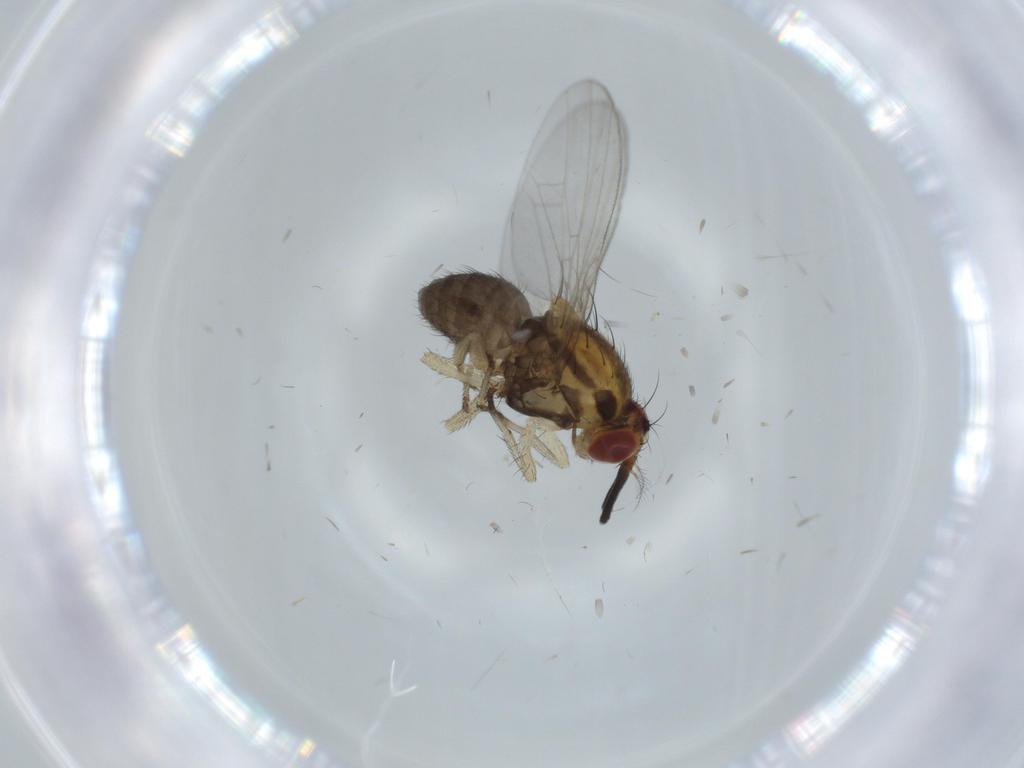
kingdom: Animalia
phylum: Arthropoda
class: Insecta
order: Diptera
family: Lauxaniidae
